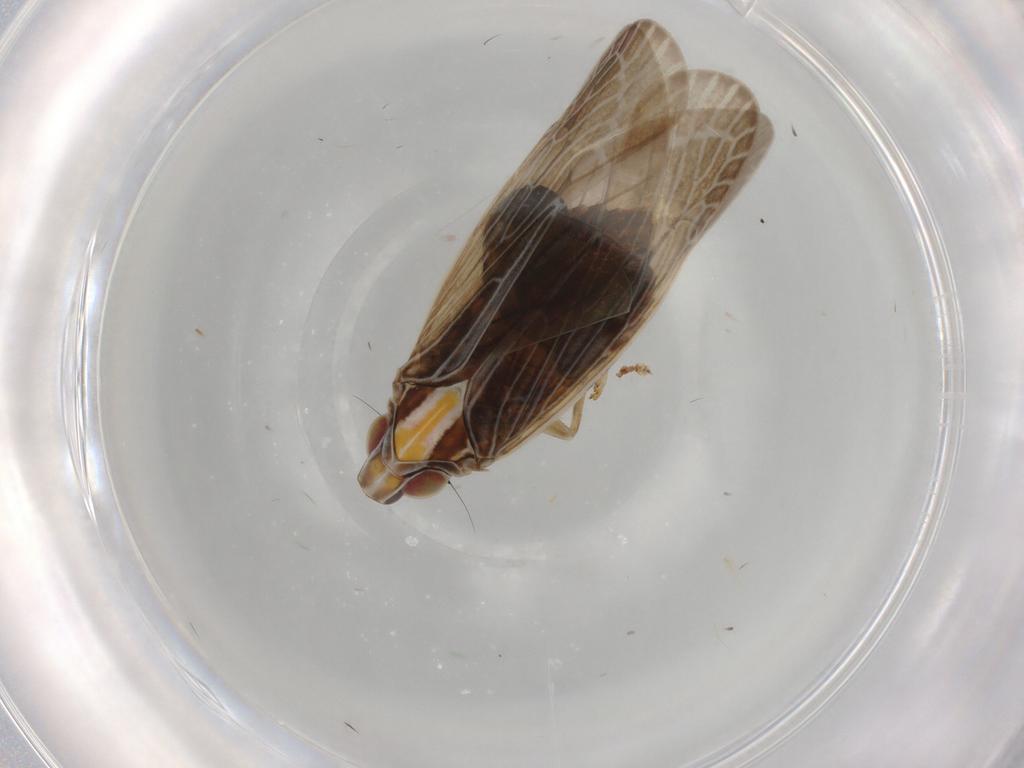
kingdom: Animalia
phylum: Arthropoda
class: Insecta
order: Hemiptera
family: Achilidae
